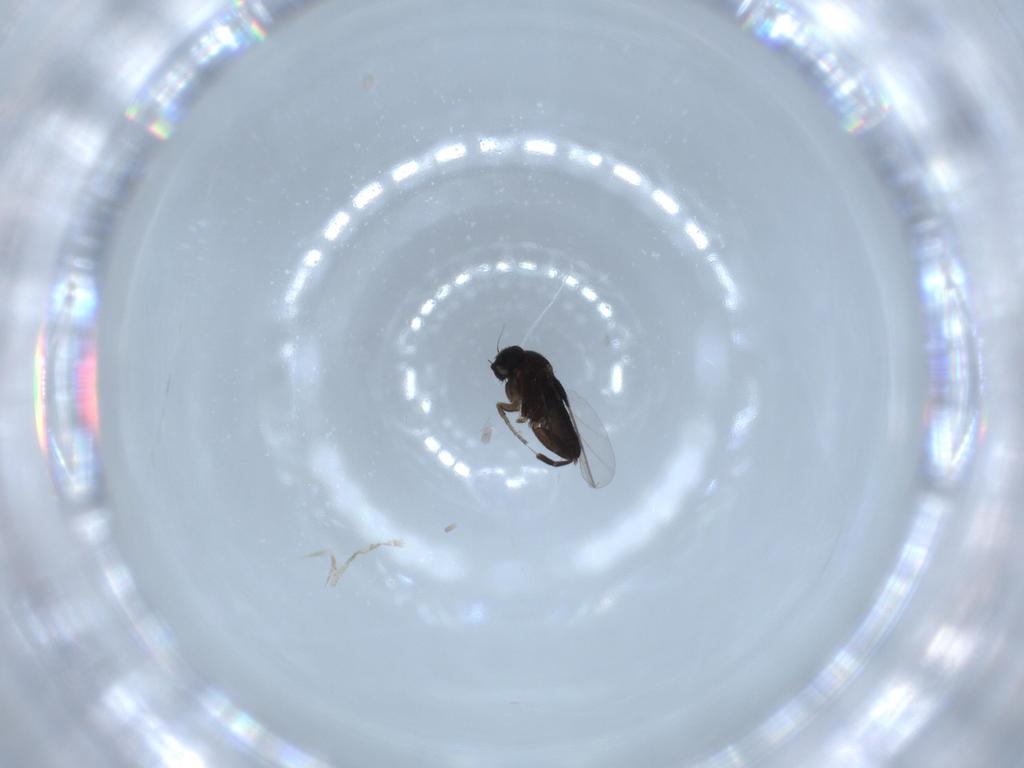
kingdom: Animalia
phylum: Arthropoda
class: Insecta
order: Diptera
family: Phoridae
